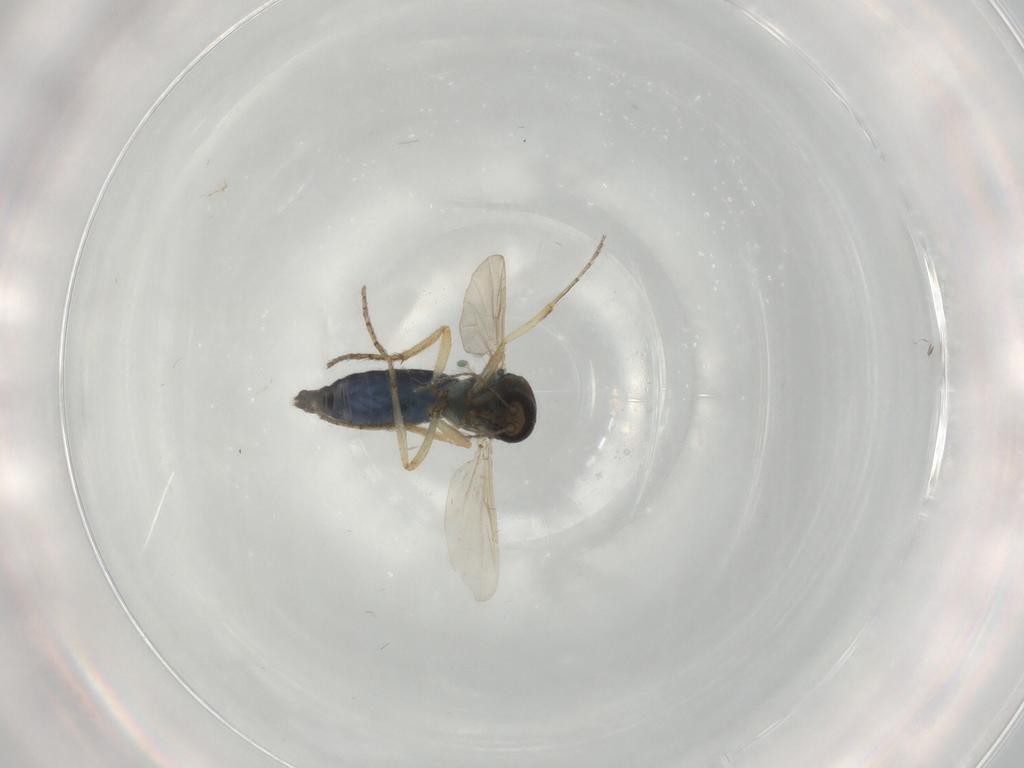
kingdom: Animalia
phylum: Arthropoda
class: Insecta
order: Diptera
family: Ceratopogonidae
